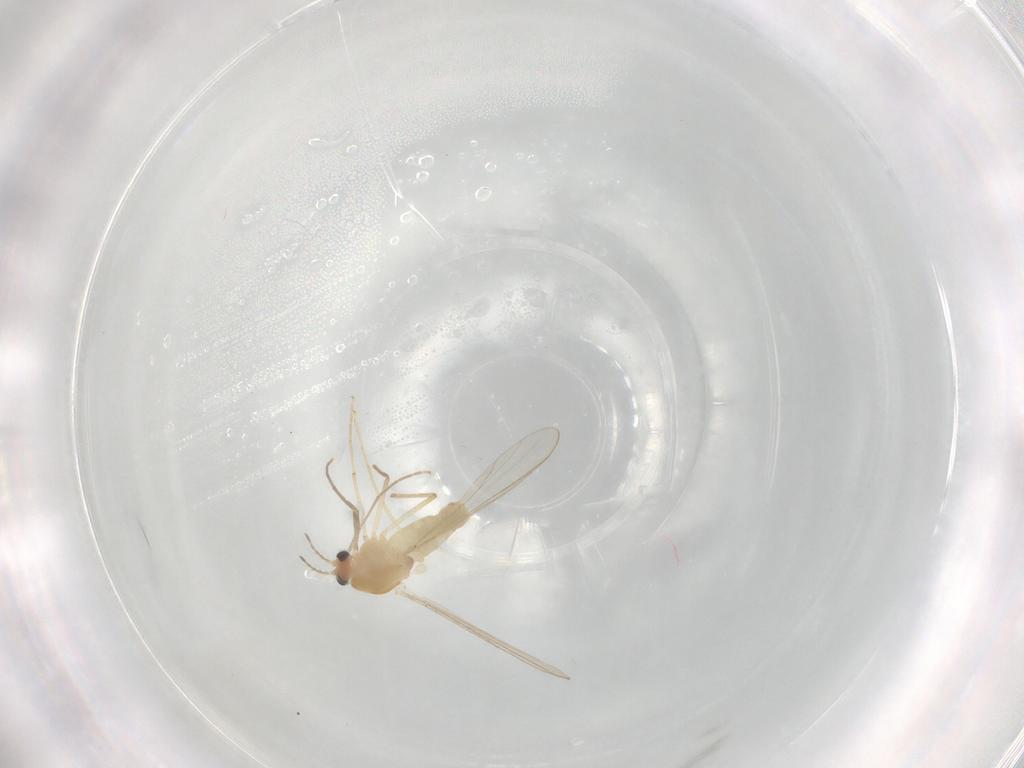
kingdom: Animalia
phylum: Arthropoda
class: Insecta
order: Diptera
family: Chironomidae
